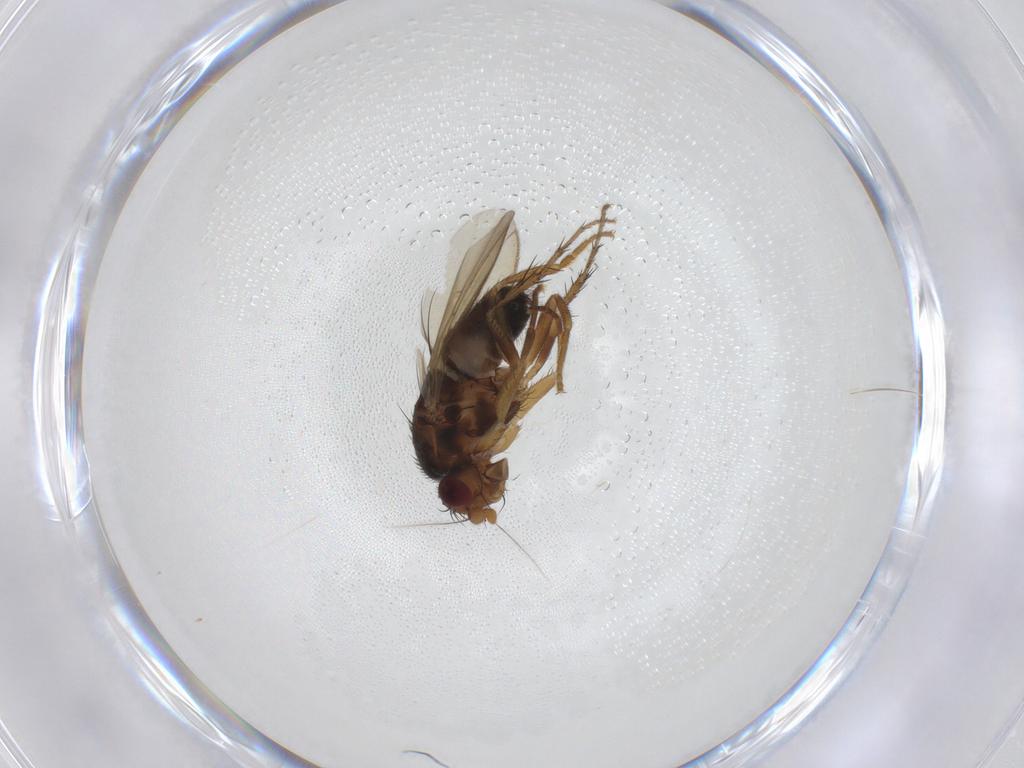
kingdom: Animalia
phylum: Arthropoda
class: Insecta
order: Diptera
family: Sphaeroceridae
